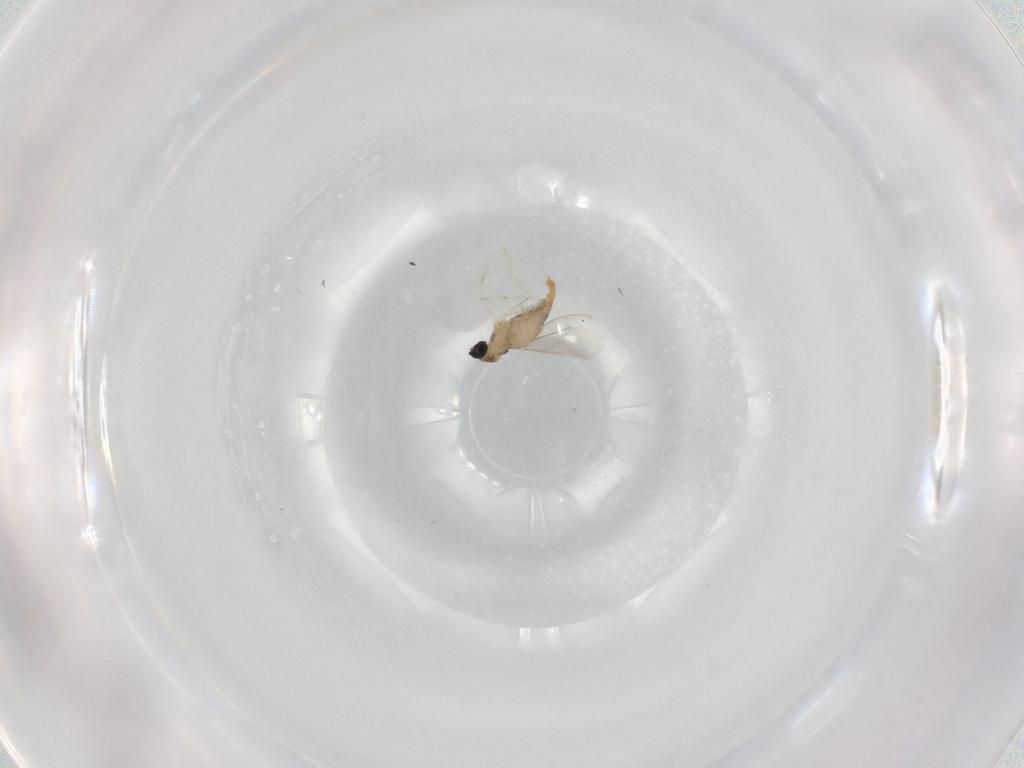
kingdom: Animalia
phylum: Arthropoda
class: Insecta
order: Diptera
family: Cecidomyiidae
